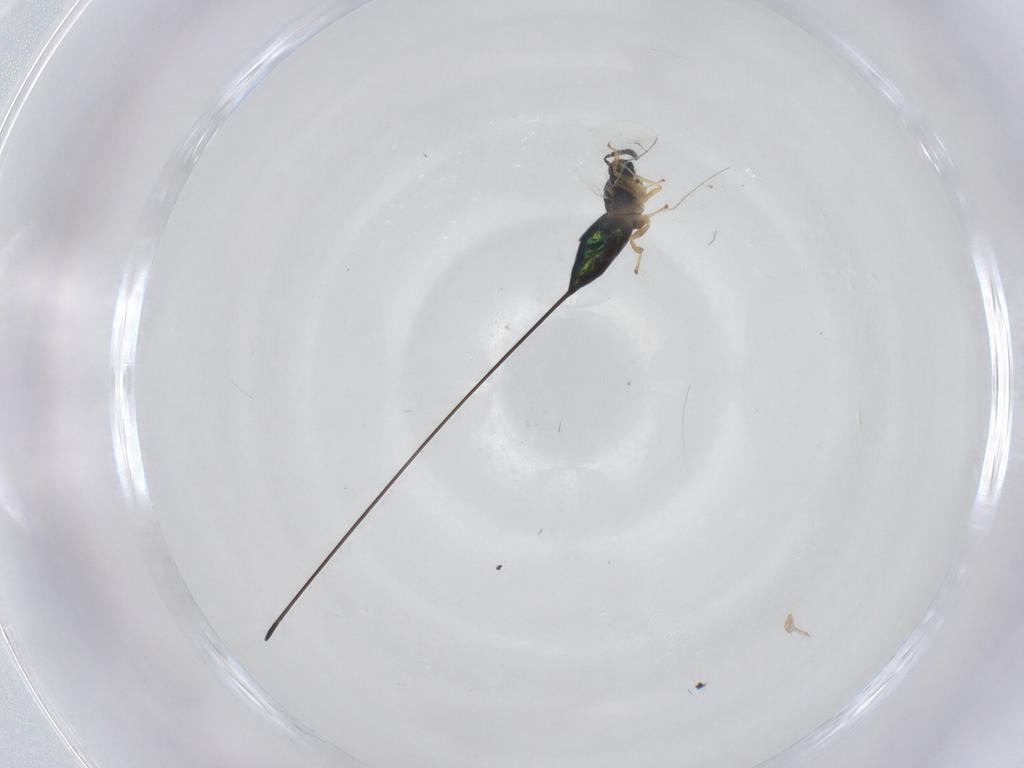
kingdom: Animalia
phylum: Arthropoda
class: Insecta
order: Hymenoptera
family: Pteromalidae
